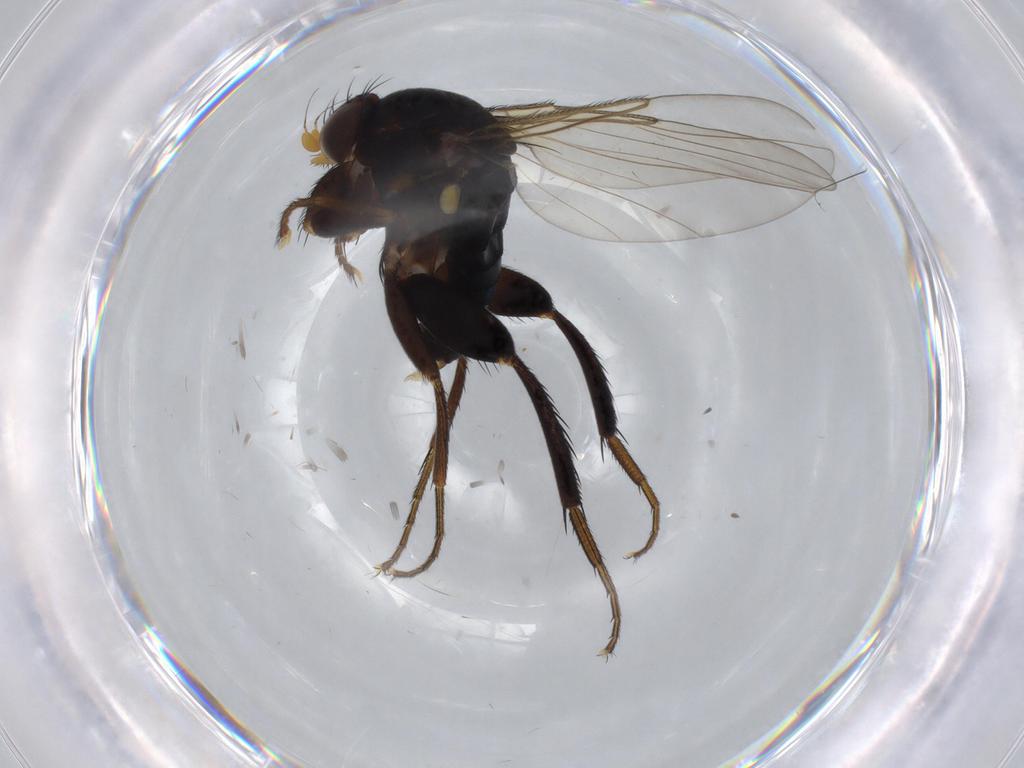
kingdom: Animalia
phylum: Arthropoda
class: Insecta
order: Diptera
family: Phoridae
